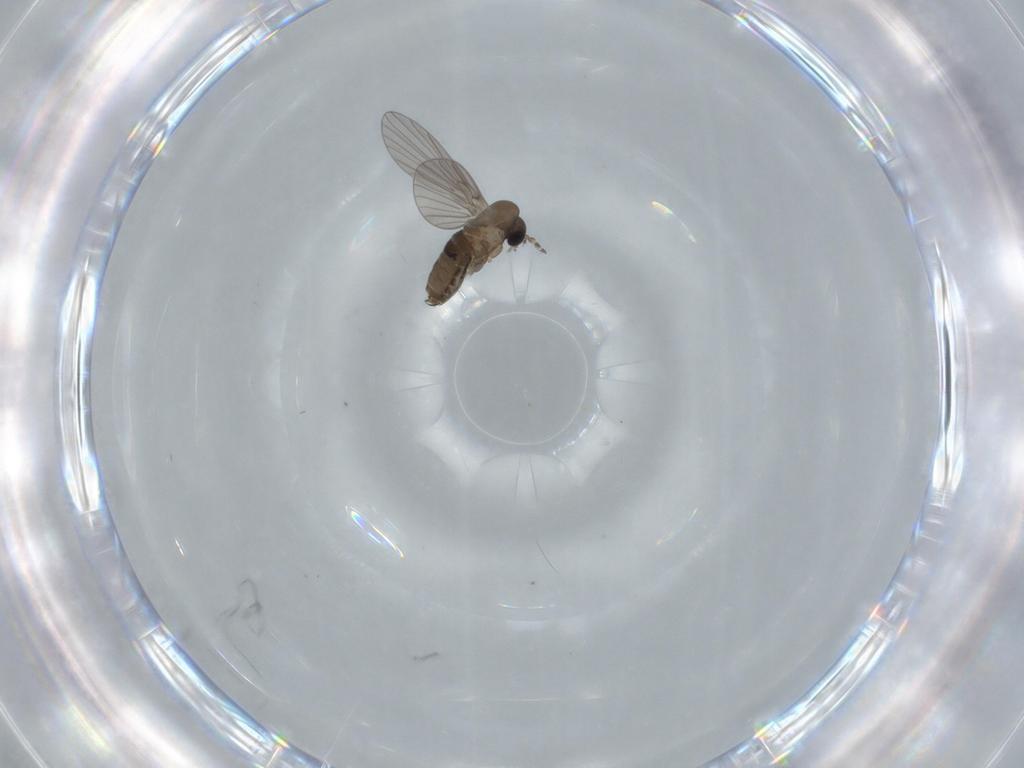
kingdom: Animalia
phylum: Arthropoda
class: Insecta
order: Diptera
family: Psychodidae
